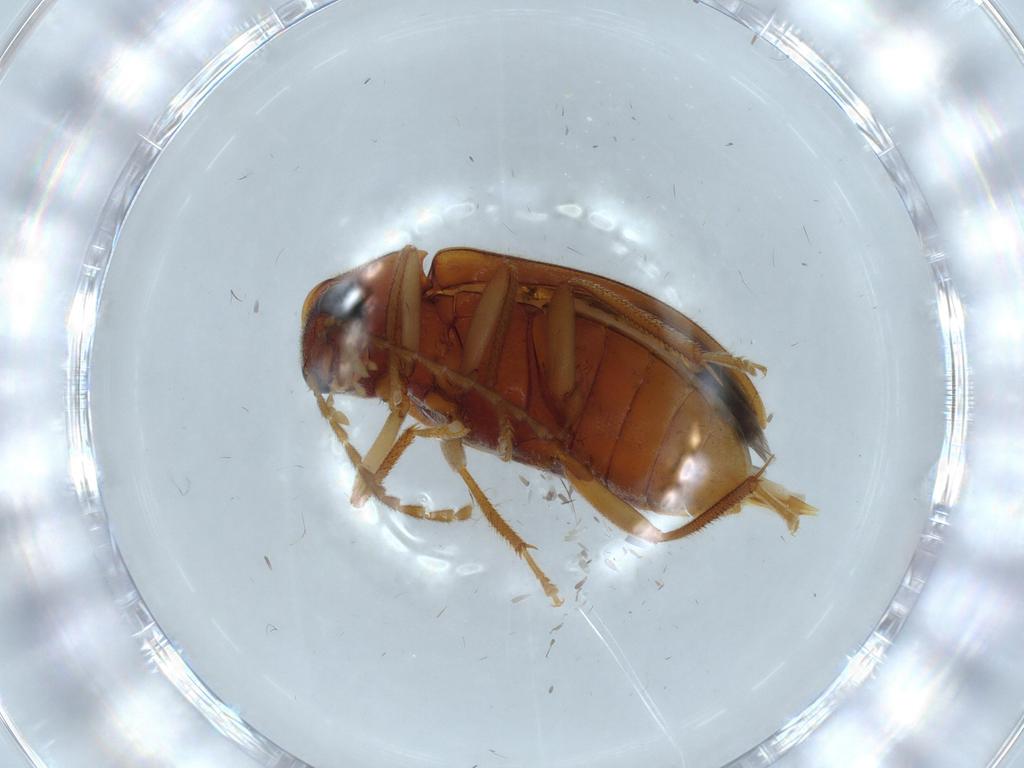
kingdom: Animalia
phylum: Arthropoda
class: Insecta
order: Coleoptera
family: Ptilodactylidae
